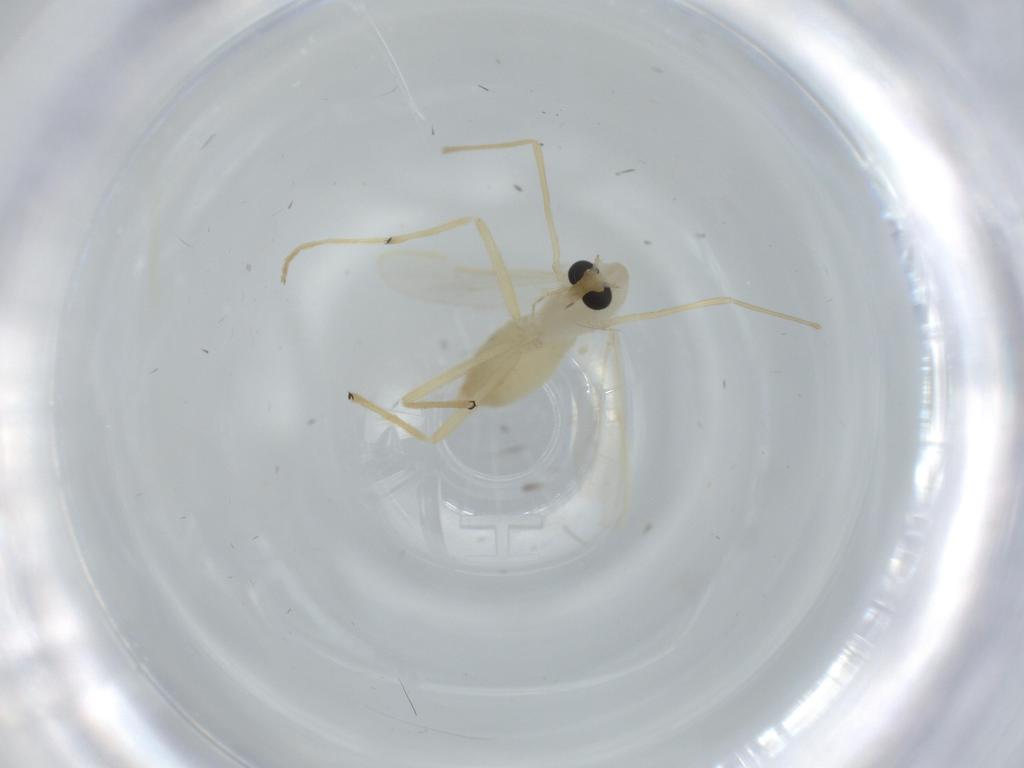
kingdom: Animalia
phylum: Arthropoda
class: Insecta
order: Diptera
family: Chironomidae
